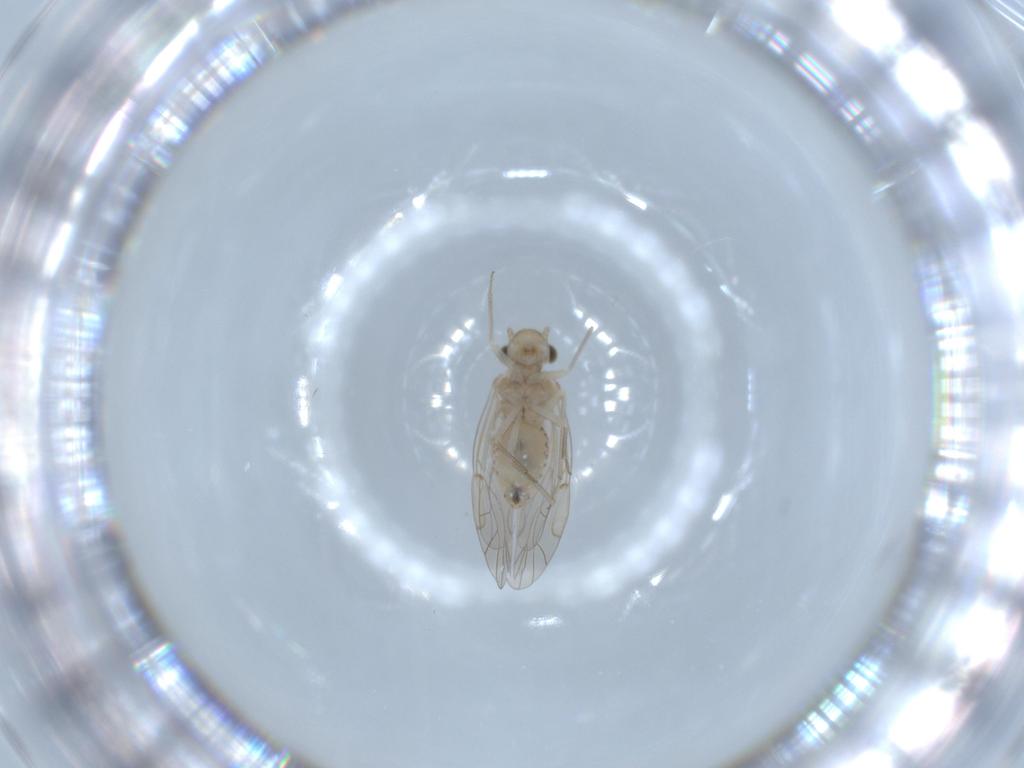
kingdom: Animalia
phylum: Arthropoda
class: Insecta
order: Psocodea
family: Lachesillidae
